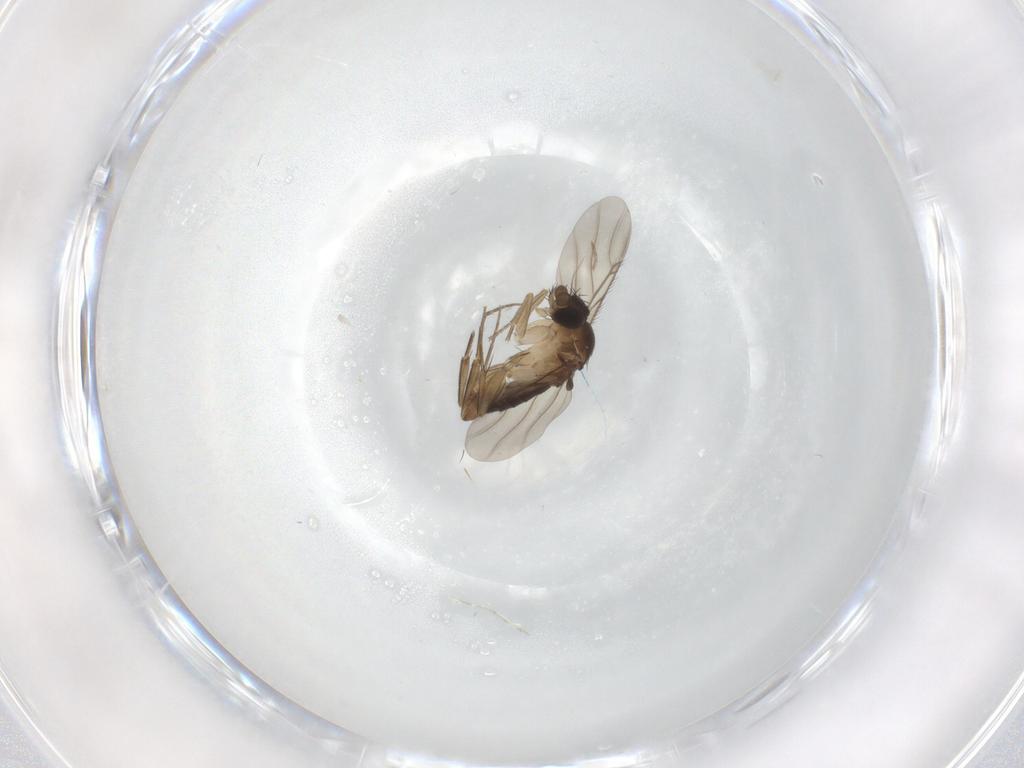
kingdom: Animalia
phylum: Arthropoda
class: Insecta
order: Diptera
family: Phoridae
